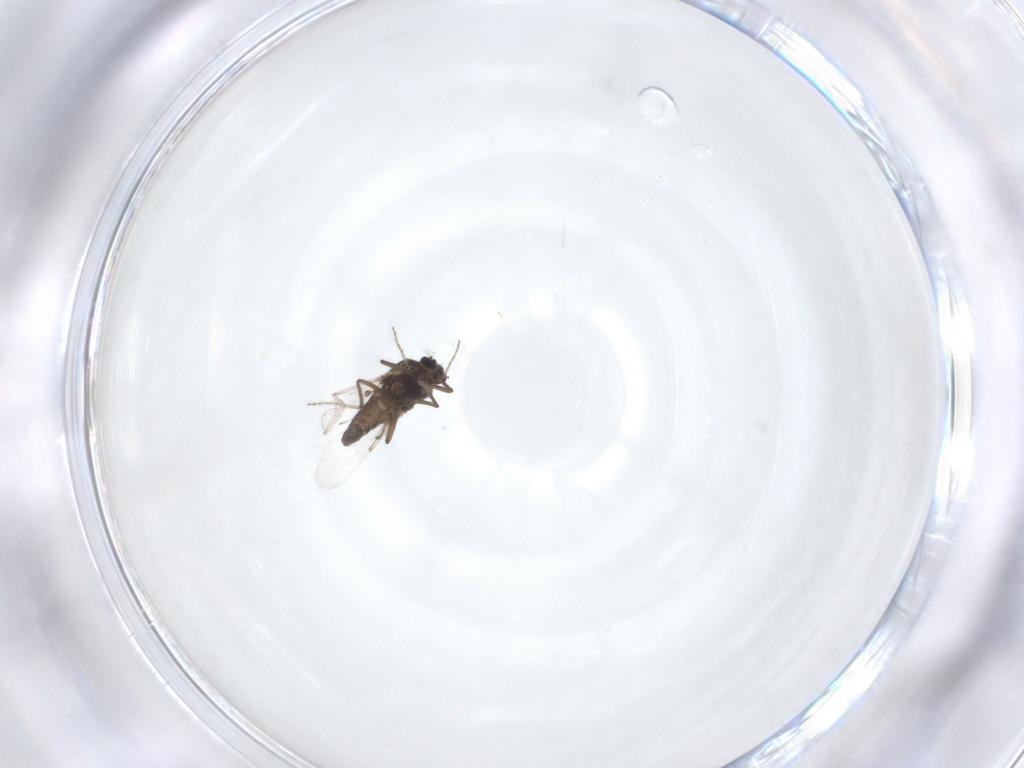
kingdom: Animalia
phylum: Arthropoda
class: Insecta
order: Diptera
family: Ceratopogonidae
